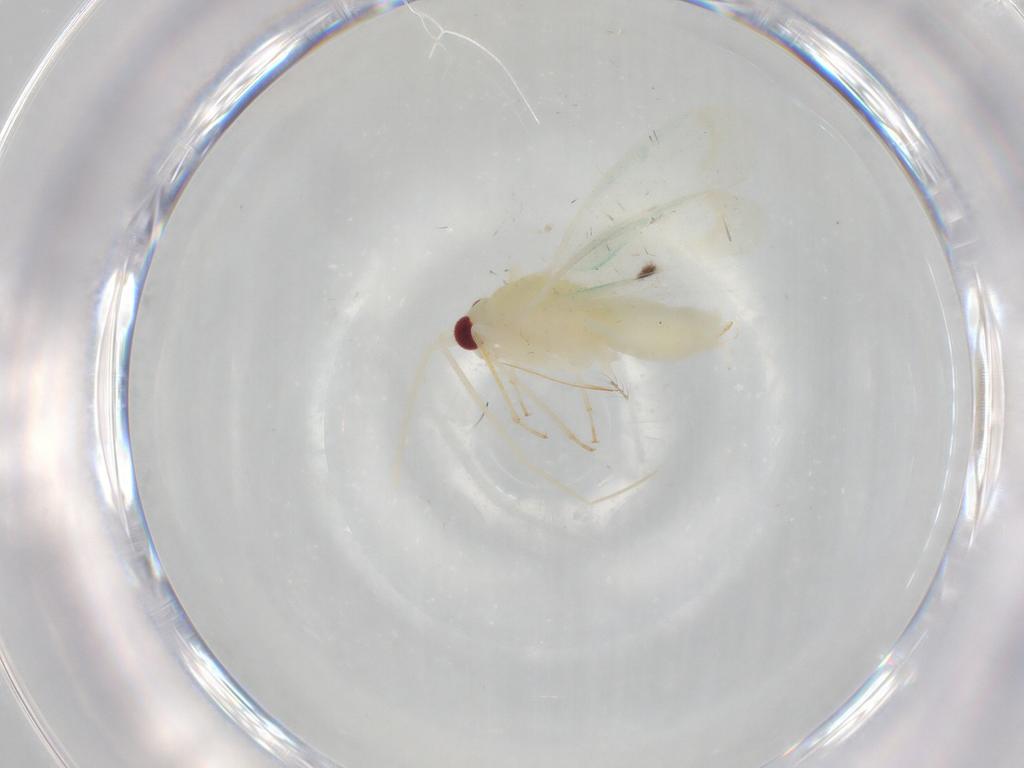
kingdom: Animalia
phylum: Arthropoda
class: Insecta
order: Hemiptera
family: Miridae
